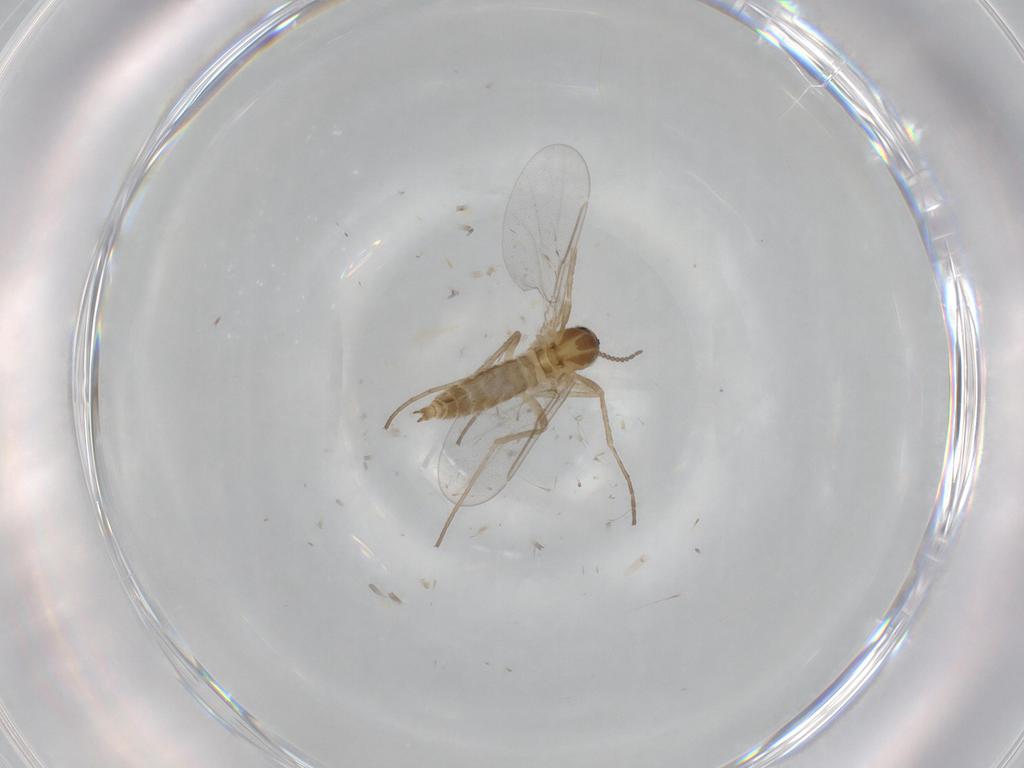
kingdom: Animalia
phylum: Arthropoda
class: Insecta
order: Diptera
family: Cecidomyiidae
